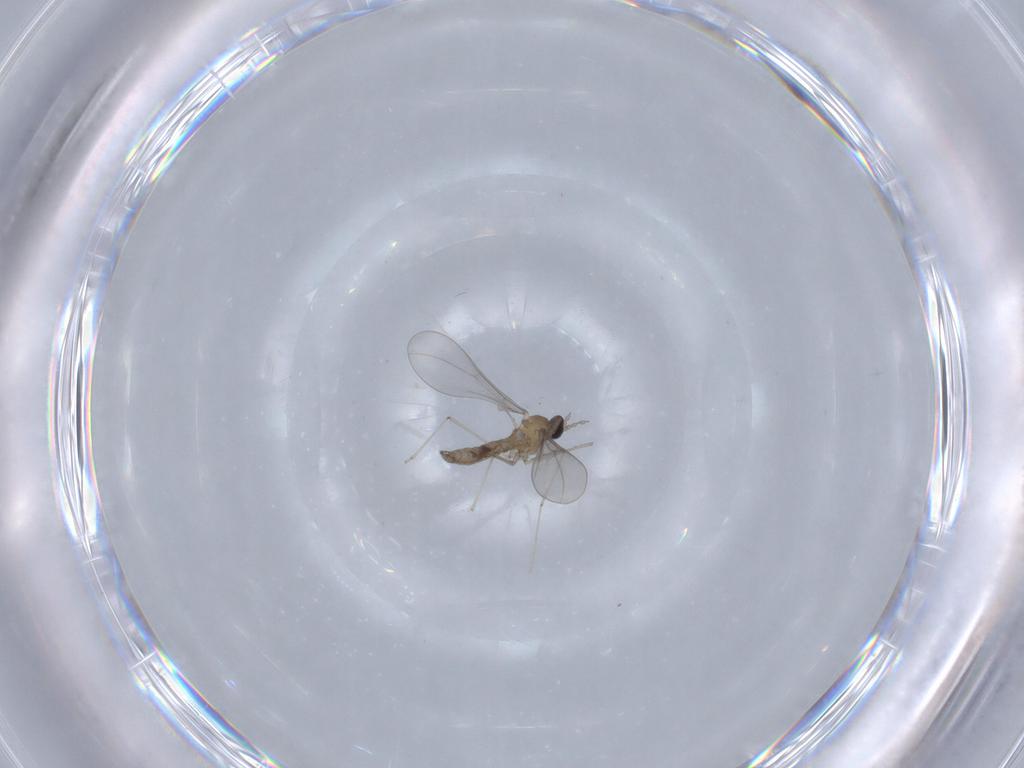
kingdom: Animalia
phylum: Arthropoda
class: Insecta
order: Diptera
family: Cecidomyiidae
